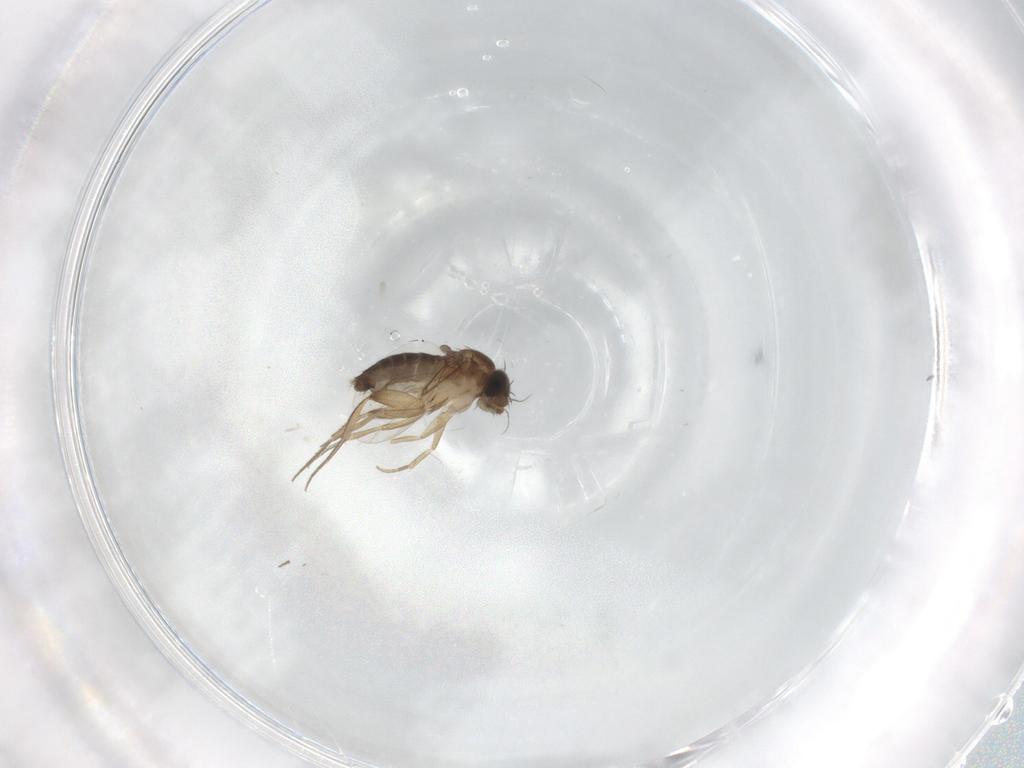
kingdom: Animalia
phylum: Arthropoda
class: Insecta
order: Diptera
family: Phoridae
